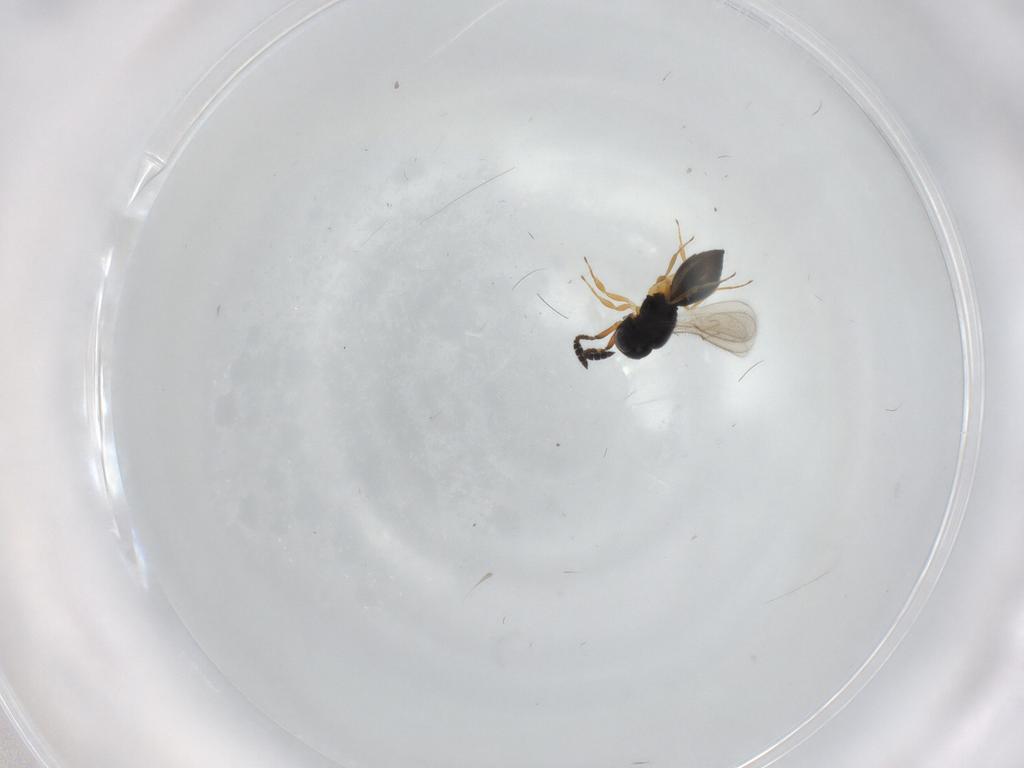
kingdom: Animalia
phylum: Arthropoda
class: Insecta
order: Hymenoptera
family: Scelionidae
